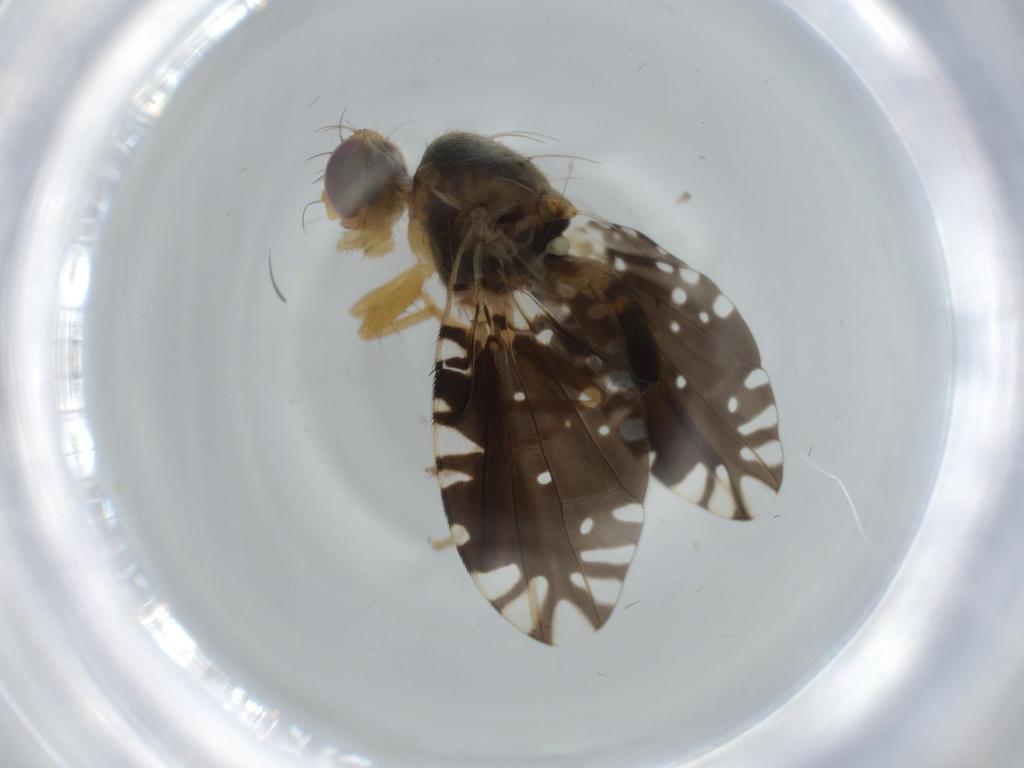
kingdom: Animalia
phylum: Arthropoda
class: Insecta
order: Diptera
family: Tephritidae
